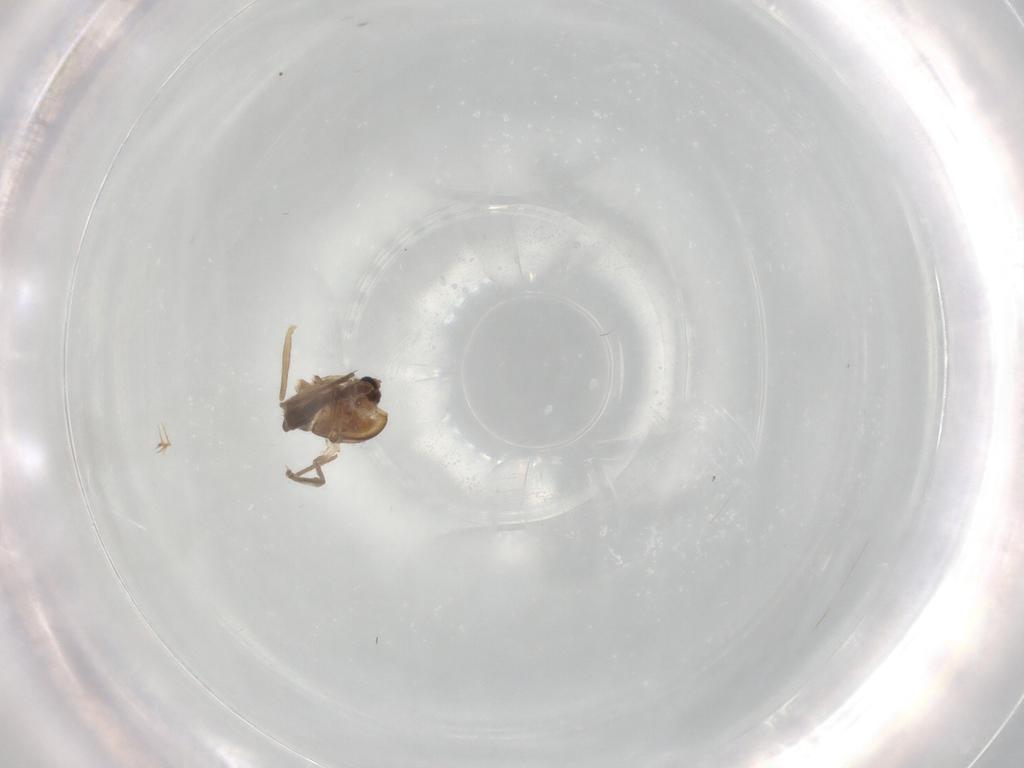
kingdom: Animalia
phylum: Arthropoda
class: Insecta
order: Diptera
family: Chironomidae
